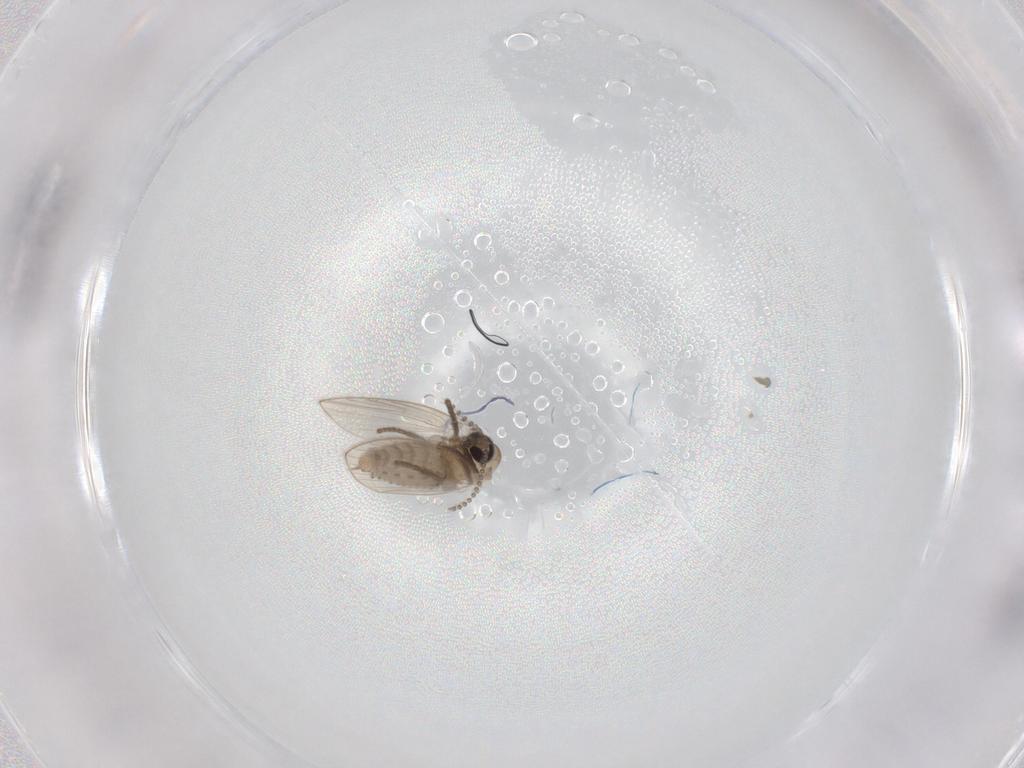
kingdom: Animalia
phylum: Arthropoda
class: Insecta
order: Diptera
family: Psychodidae
